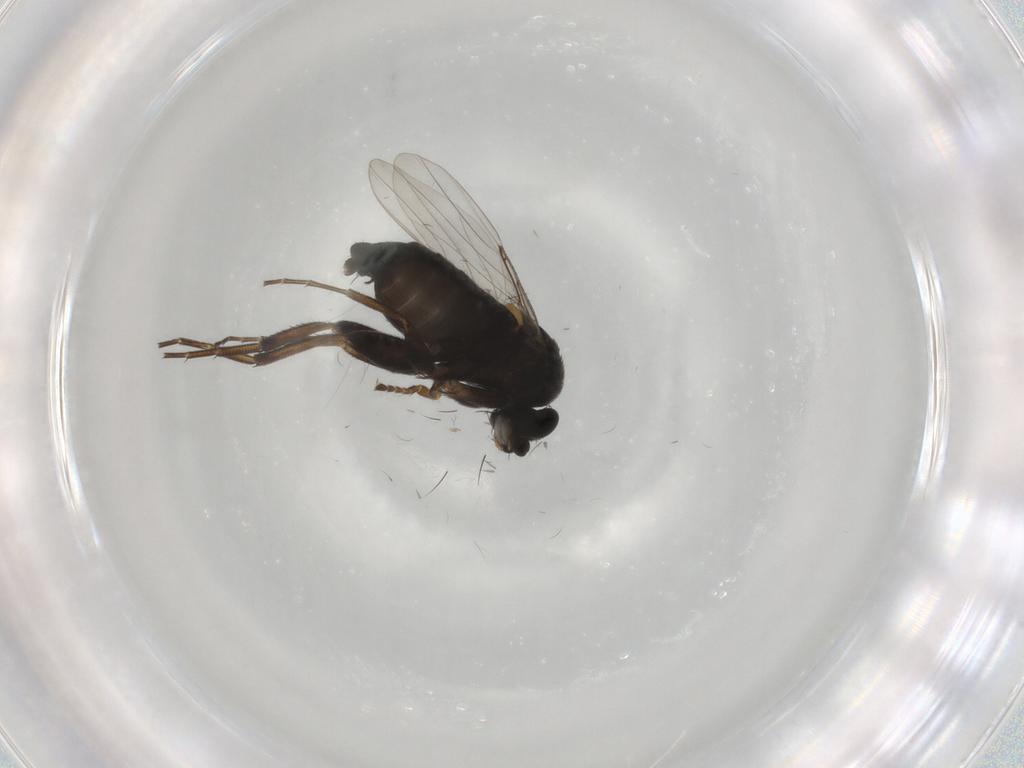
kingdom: Animalia
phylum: Arthropoda
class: Insecta
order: Diptera
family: Phoridae
